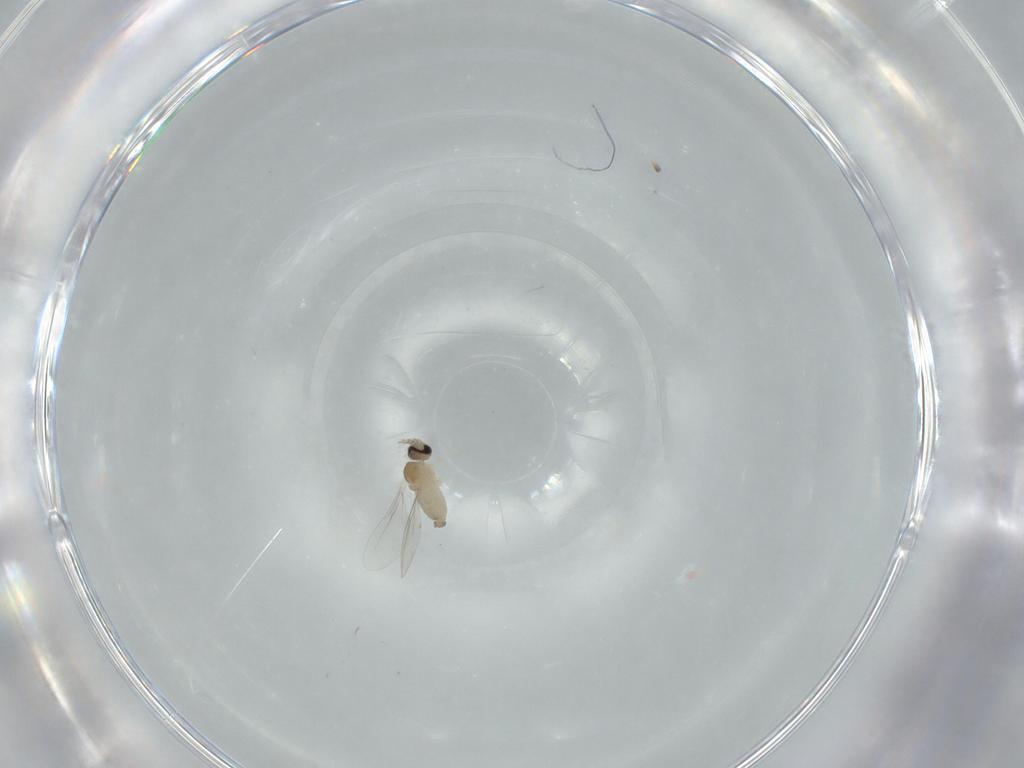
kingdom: Animalia
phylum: Arthropoda
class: Insecta
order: Diptera
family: Cecidomyiidae
